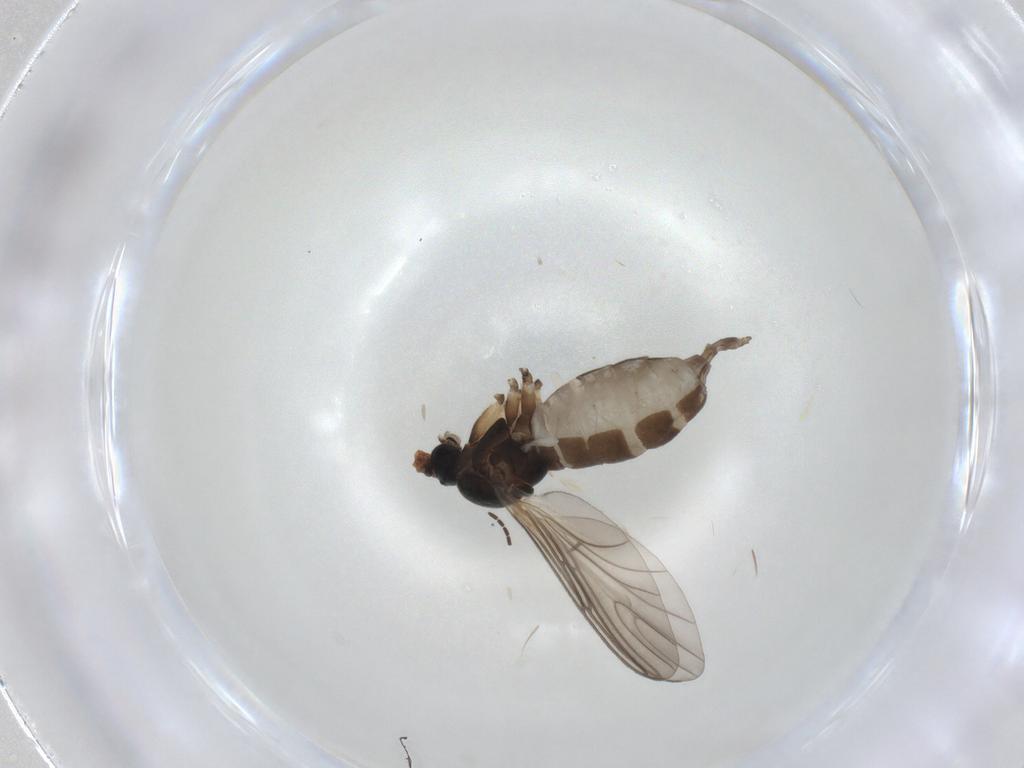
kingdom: Animalia
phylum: Arthropoda
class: Insecta
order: Diptera
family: Sciaridae
